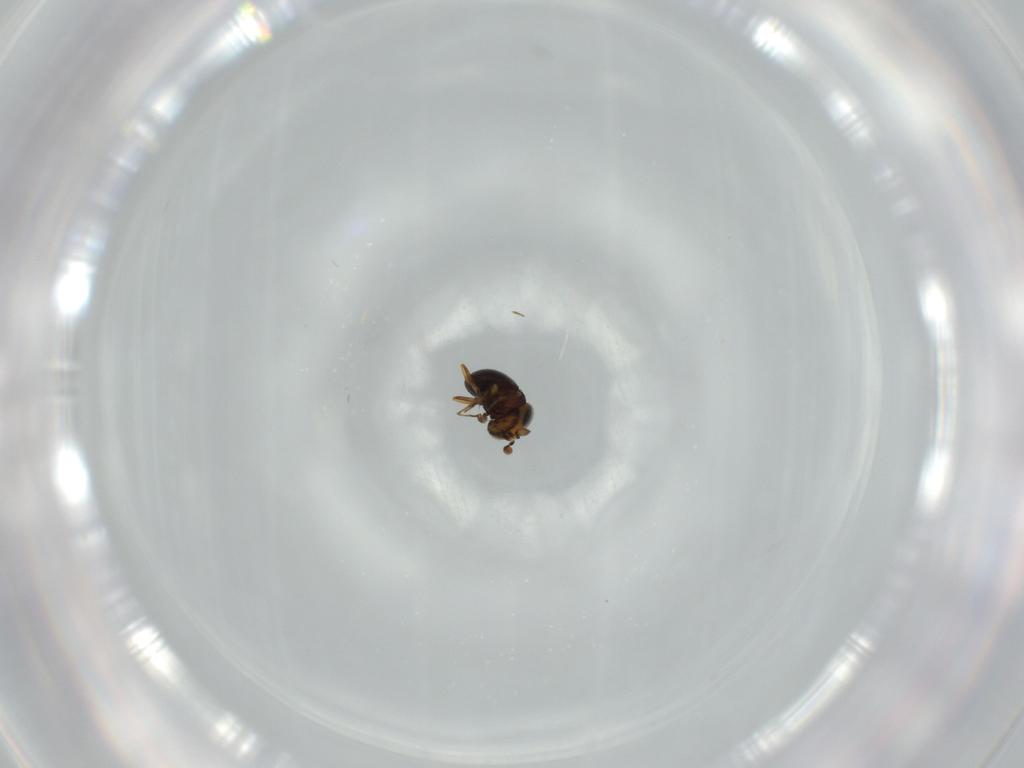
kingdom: Animalia
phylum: Arthropoda
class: Insecta
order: Hymenoptera
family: Scelionidae
